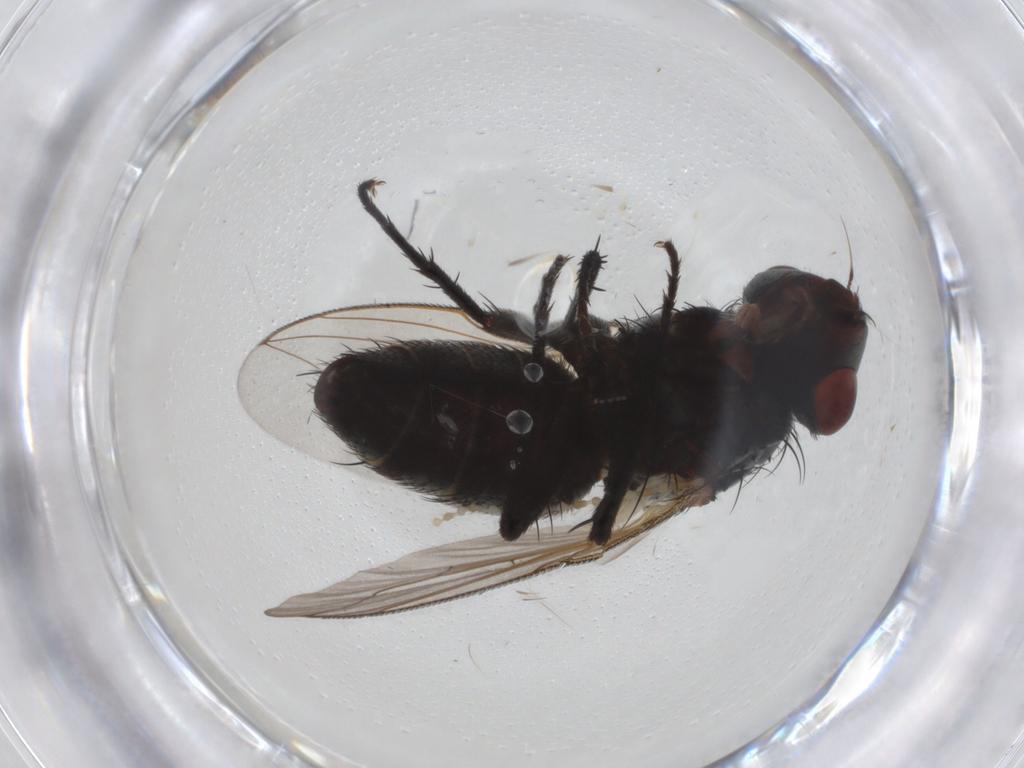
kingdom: Animalia
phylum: Arthropoda
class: Insecta
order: Diptera
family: Cecidomyiidae
